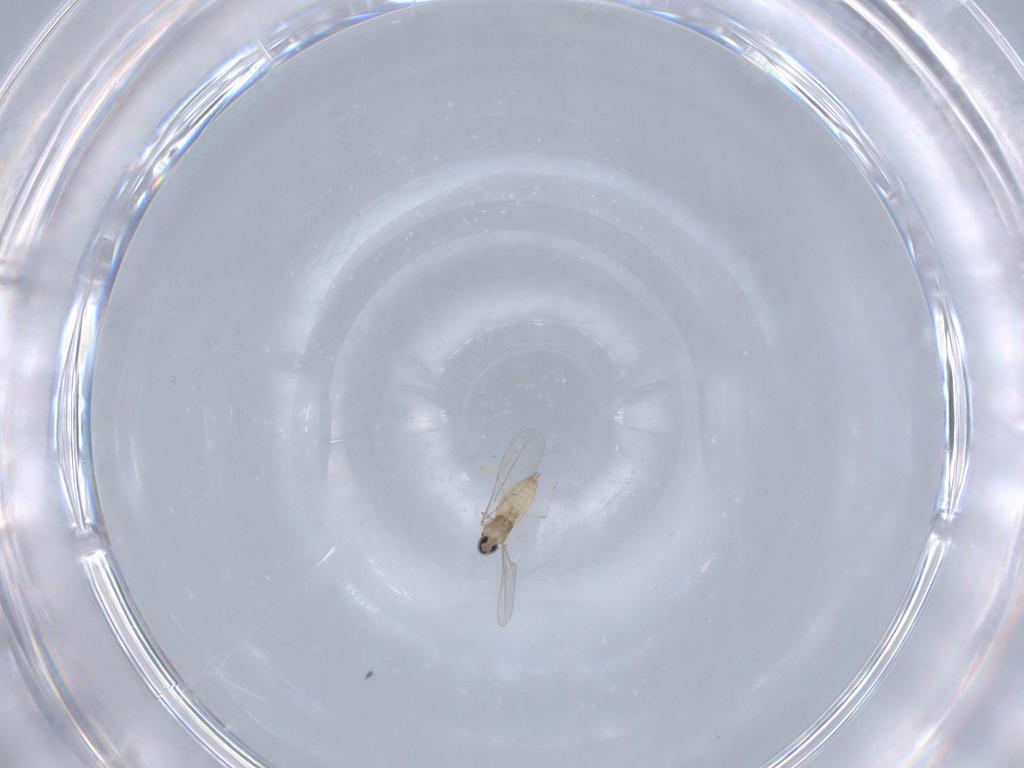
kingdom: Animalia
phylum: Arthropoda
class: Insecta
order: Diptera
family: Cecidomyiidae
